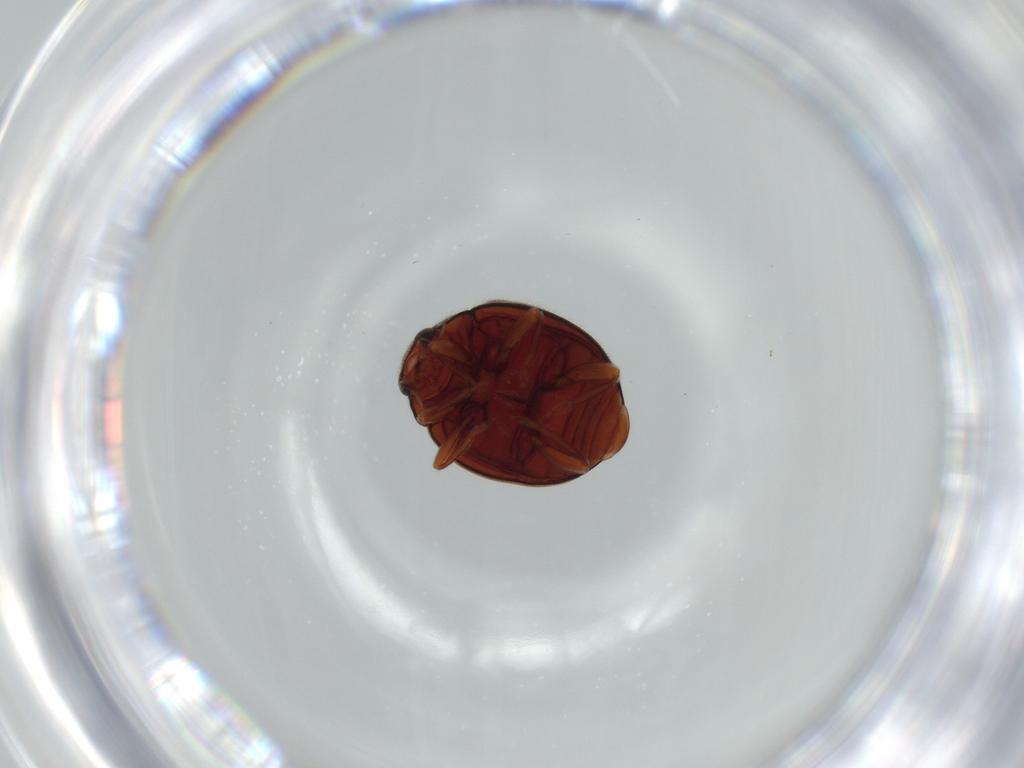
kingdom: Animalia
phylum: Arthropoda
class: Insecta
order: Coleoptera
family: Coccinellidae
